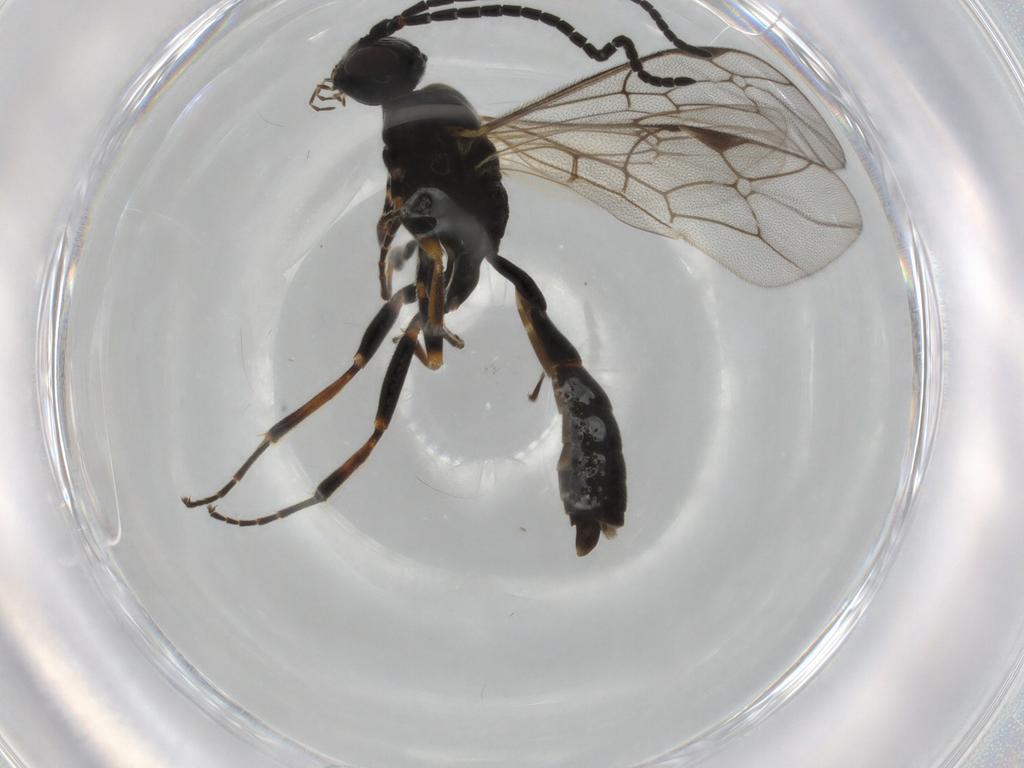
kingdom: Animalia
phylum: Arthropoda
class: Insecta
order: Hymenoptera
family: Ichneumonidae
